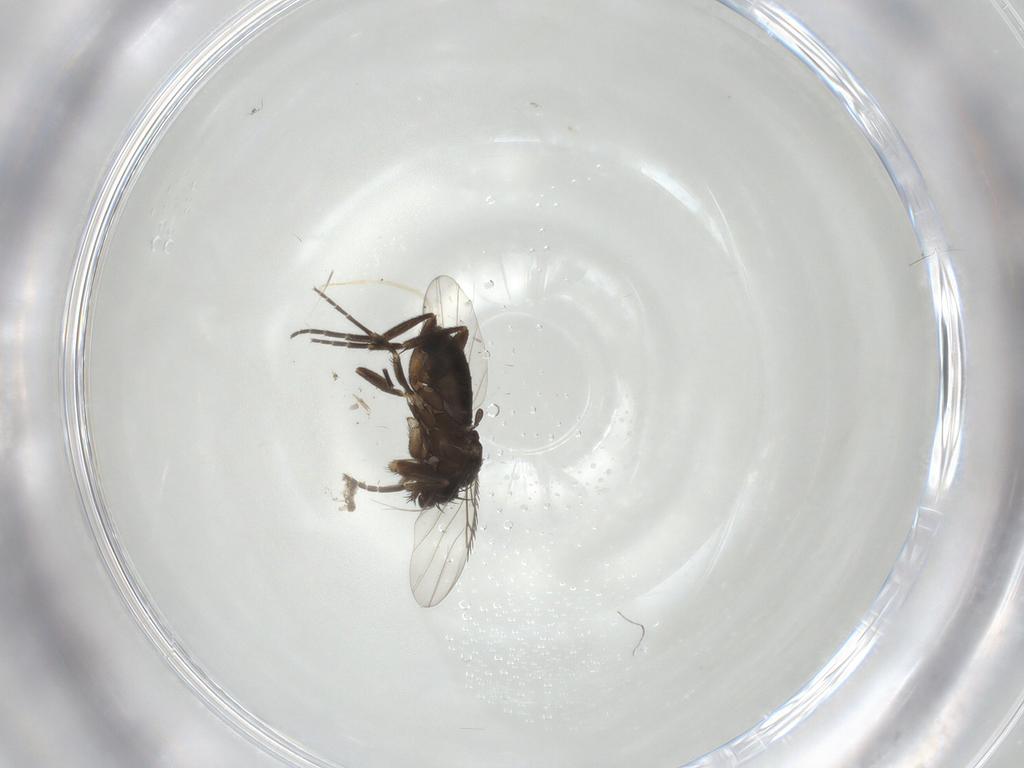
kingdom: Animalia
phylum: Arthropoda
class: Insecta
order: Diptera
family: Phoridae
